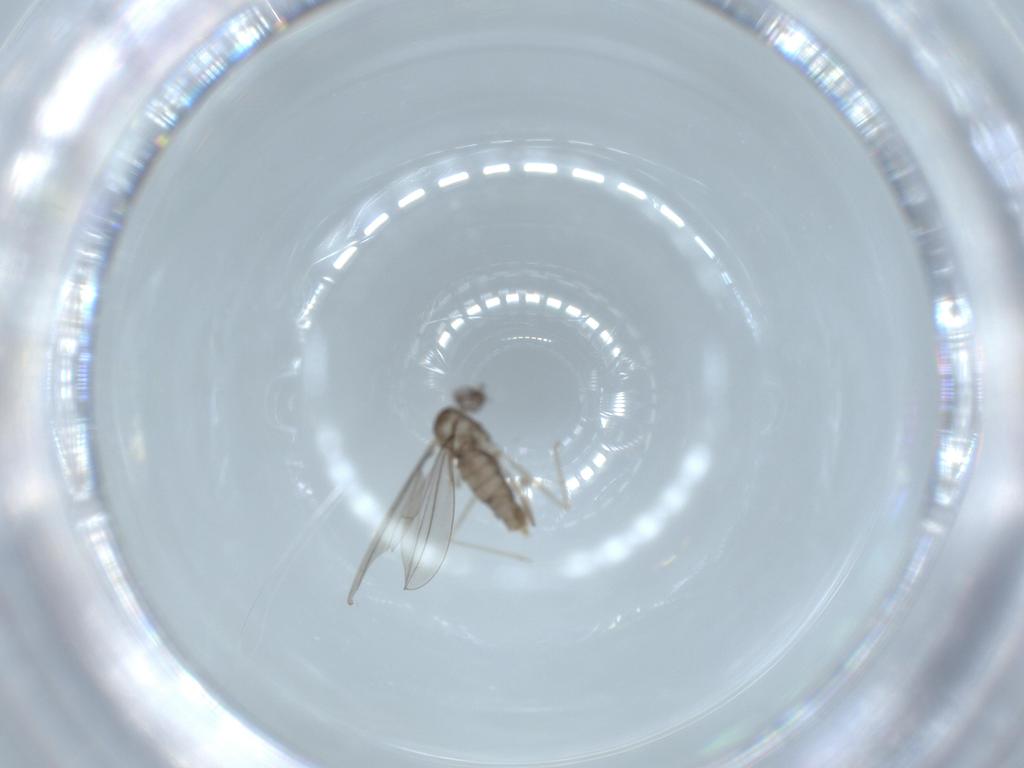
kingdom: Animalia
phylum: Arthropoda
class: Insecta
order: Diptera
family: Cecidomyiidae
